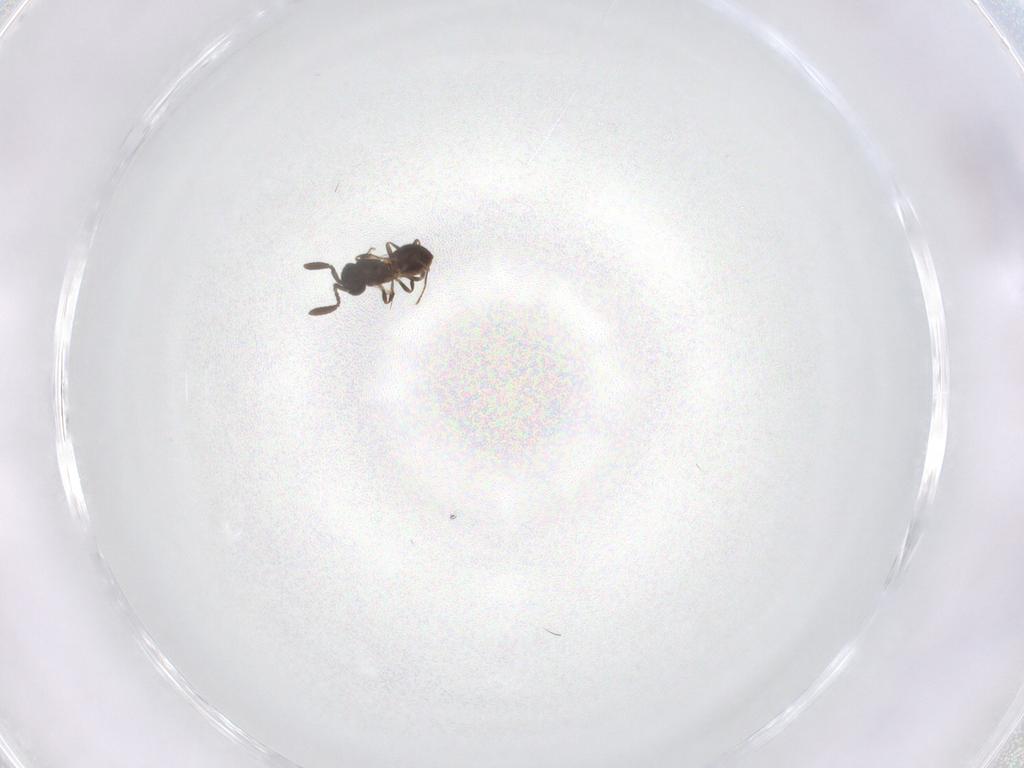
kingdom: Animalia
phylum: Arthropoda
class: Insecta
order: Hymenoptera
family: Scelionidae
